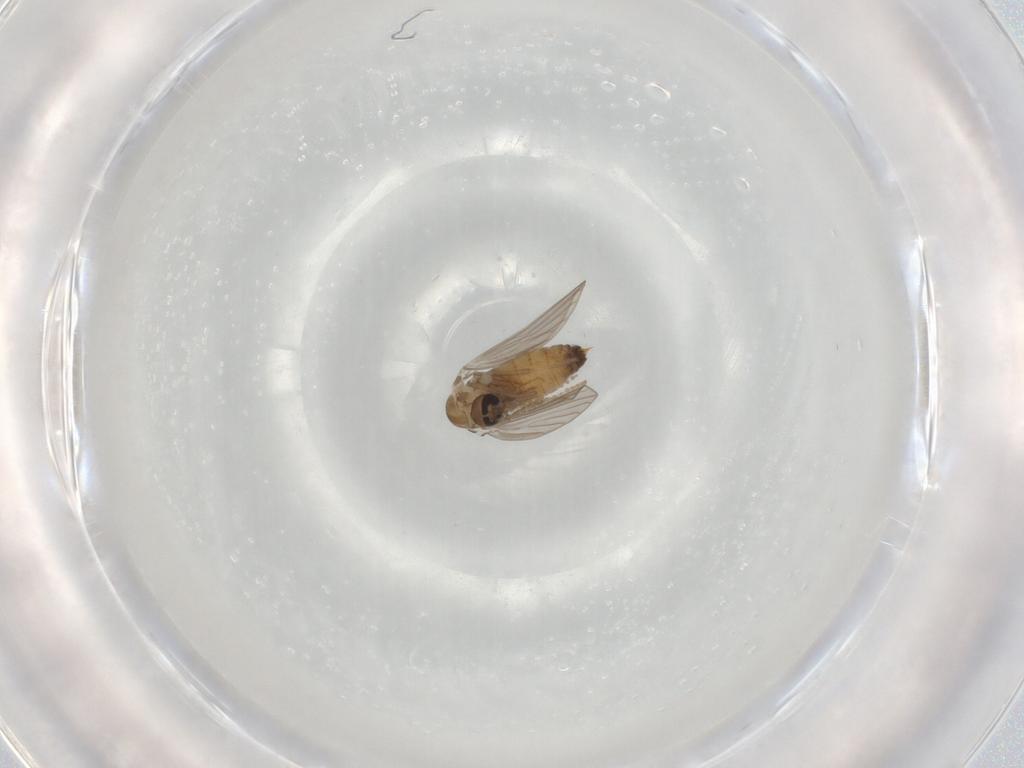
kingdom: Animalia
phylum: Arthropoda
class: Insecta
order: Diptera
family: Psychodidae
